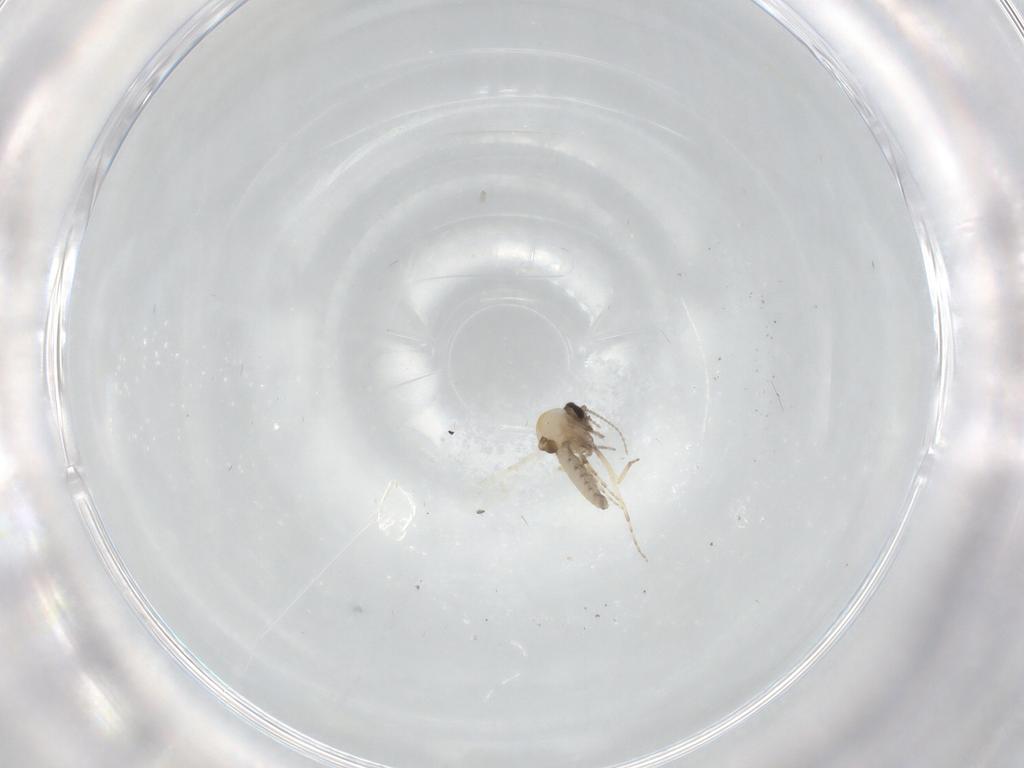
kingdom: Animalia
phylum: Arthropoda
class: Insecta
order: Diptera
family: Ceratopogonidae
